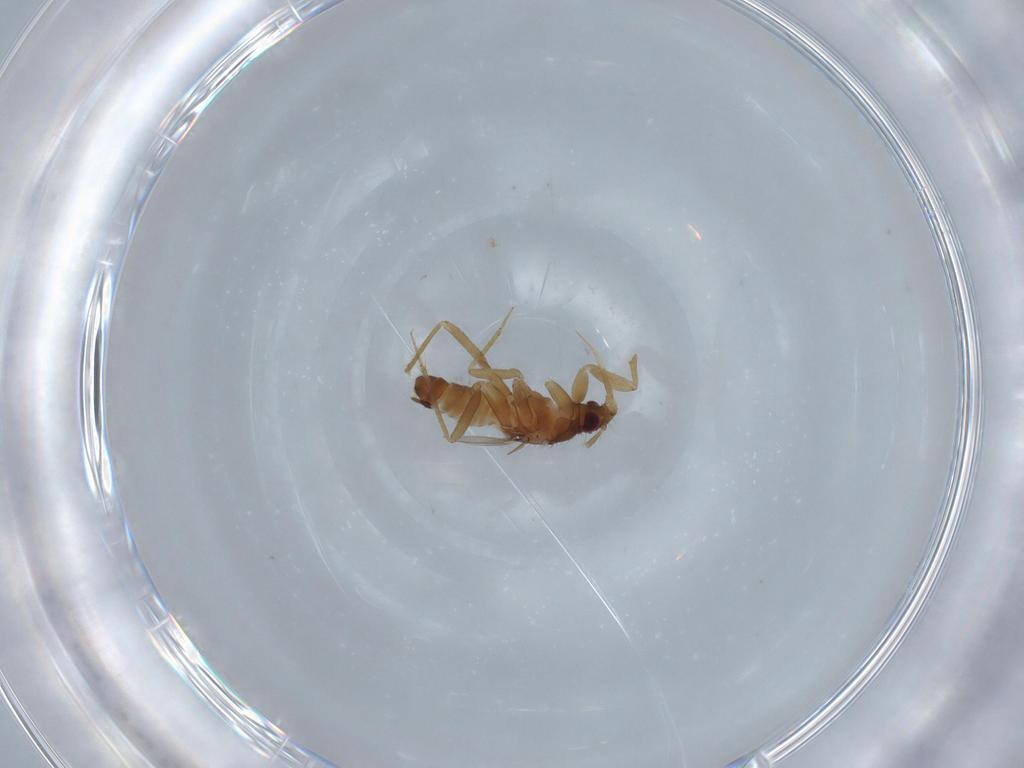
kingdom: Animalia
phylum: Arthropoda
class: Insecta
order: Hemiptera
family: Ceratocombidae
